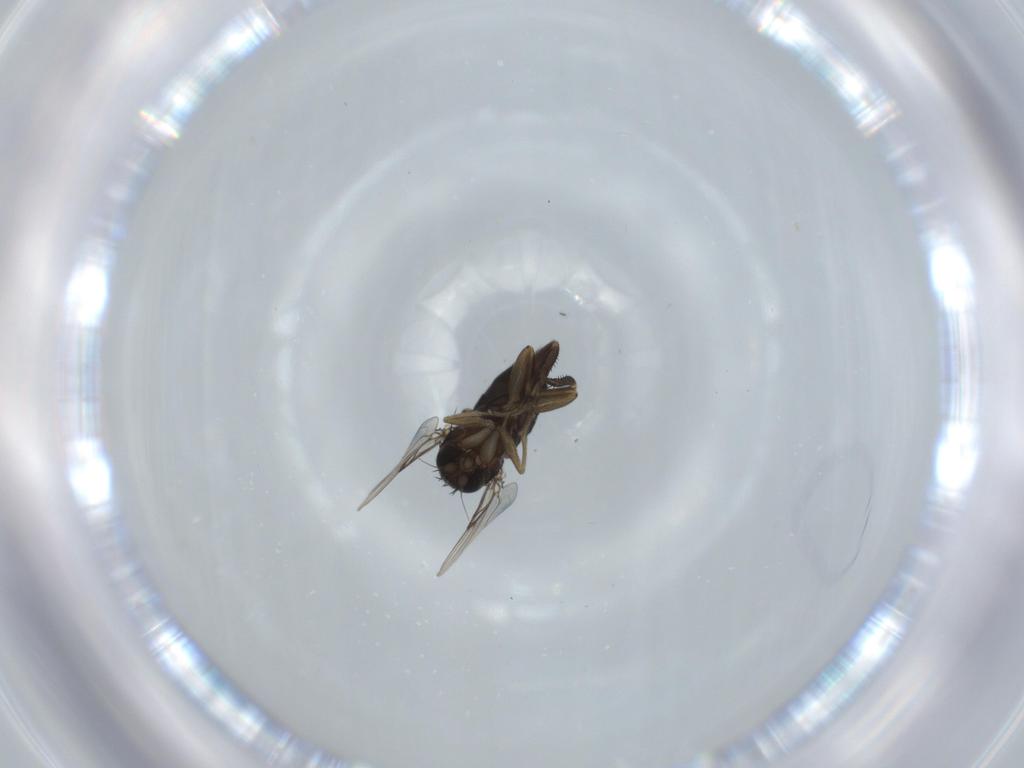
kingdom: Animalia
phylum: Arthropoda
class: Insecta
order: Diptera
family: Phoridae
